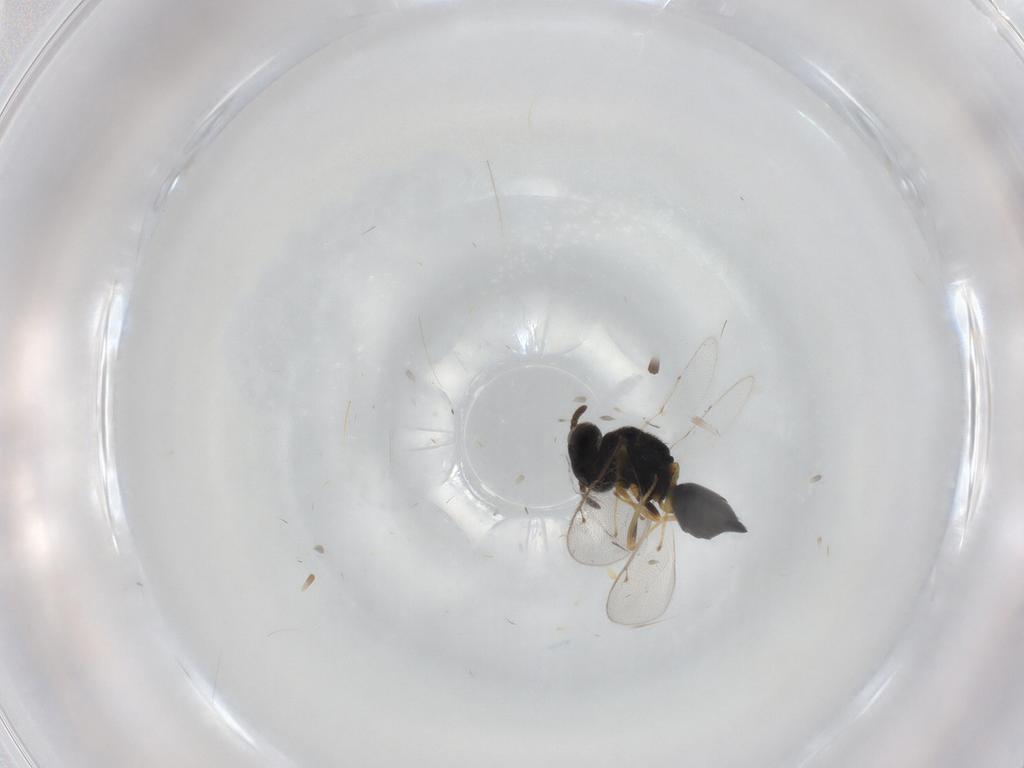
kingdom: Animalia
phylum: Arthropoda
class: Insecta
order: Hymenoptera
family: Pteromalidae
